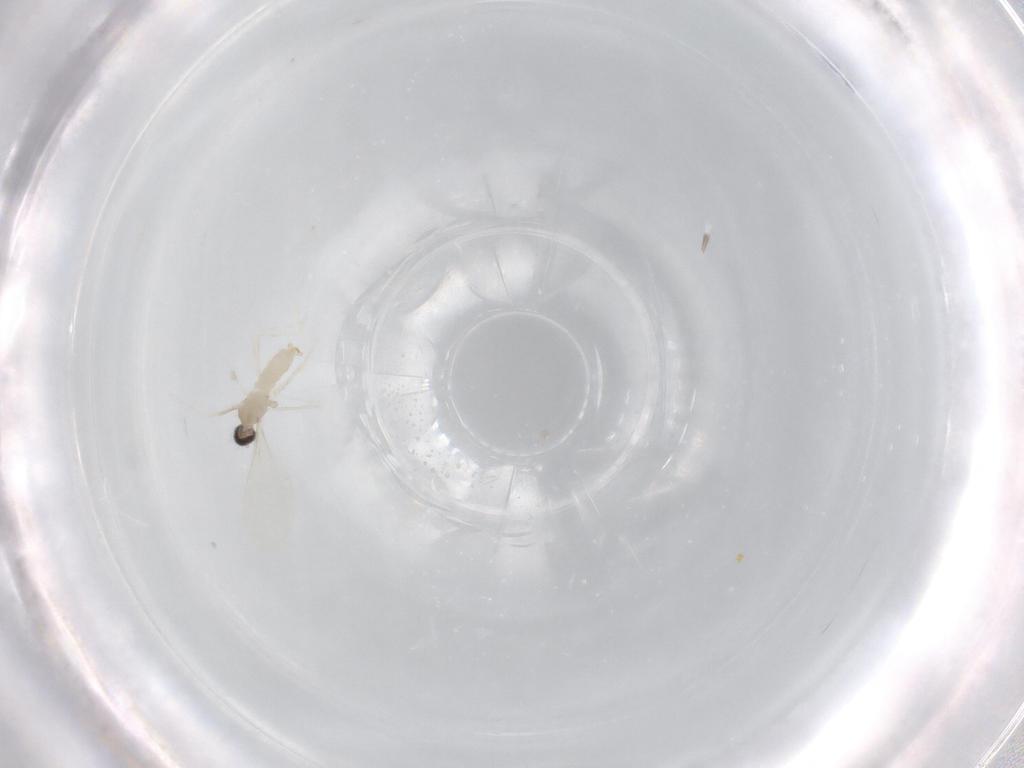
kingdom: Animalia
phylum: Arthropoda
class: Insecta
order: Diptera
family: Cecidomyiidae
